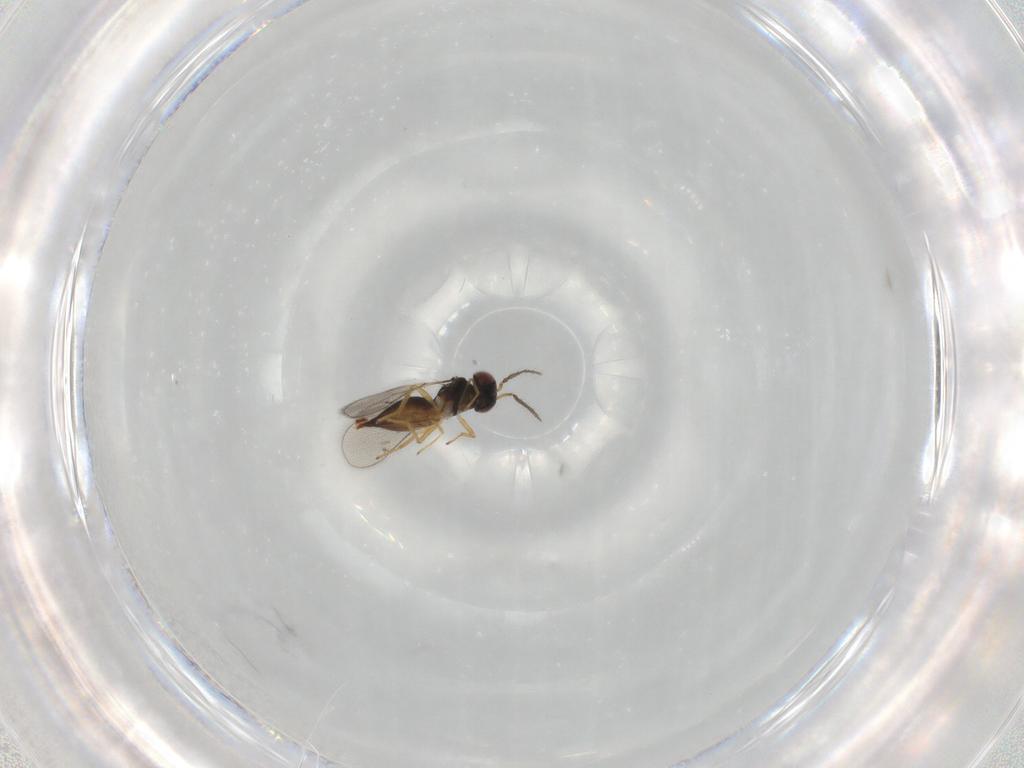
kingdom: Animalia
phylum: Arthropoda
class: Insecta
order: Hymenoptera
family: Eulophidae
